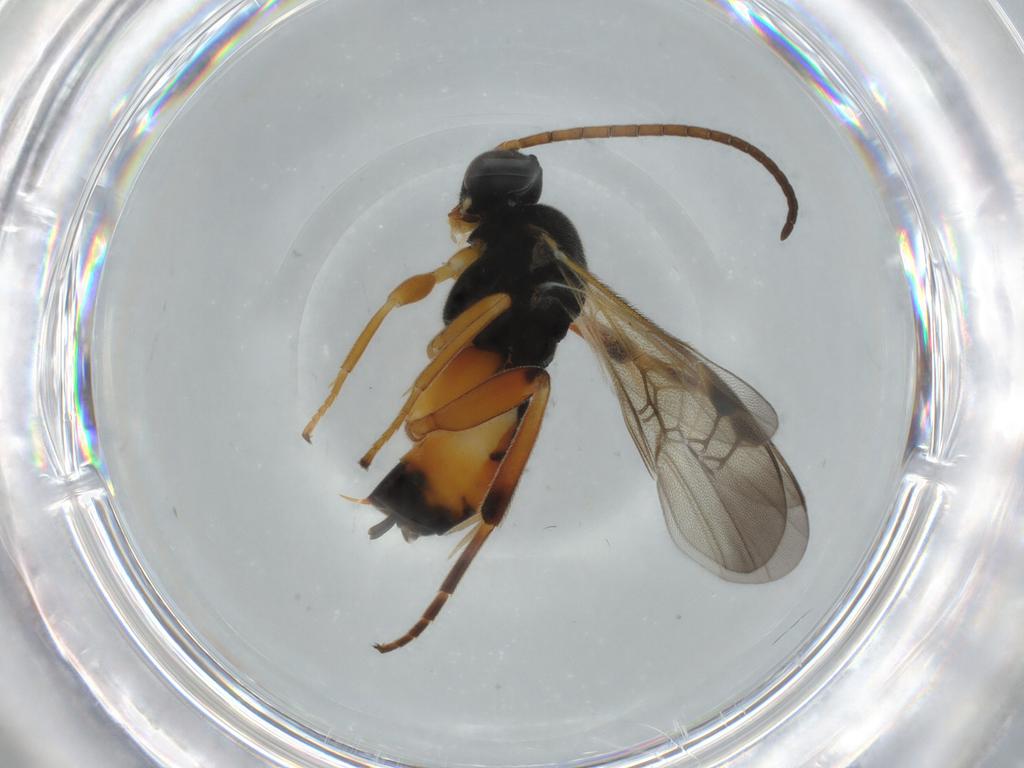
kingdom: Animalia
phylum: Arthropoda
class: Insecta
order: Hymenoptera
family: Braconidae
